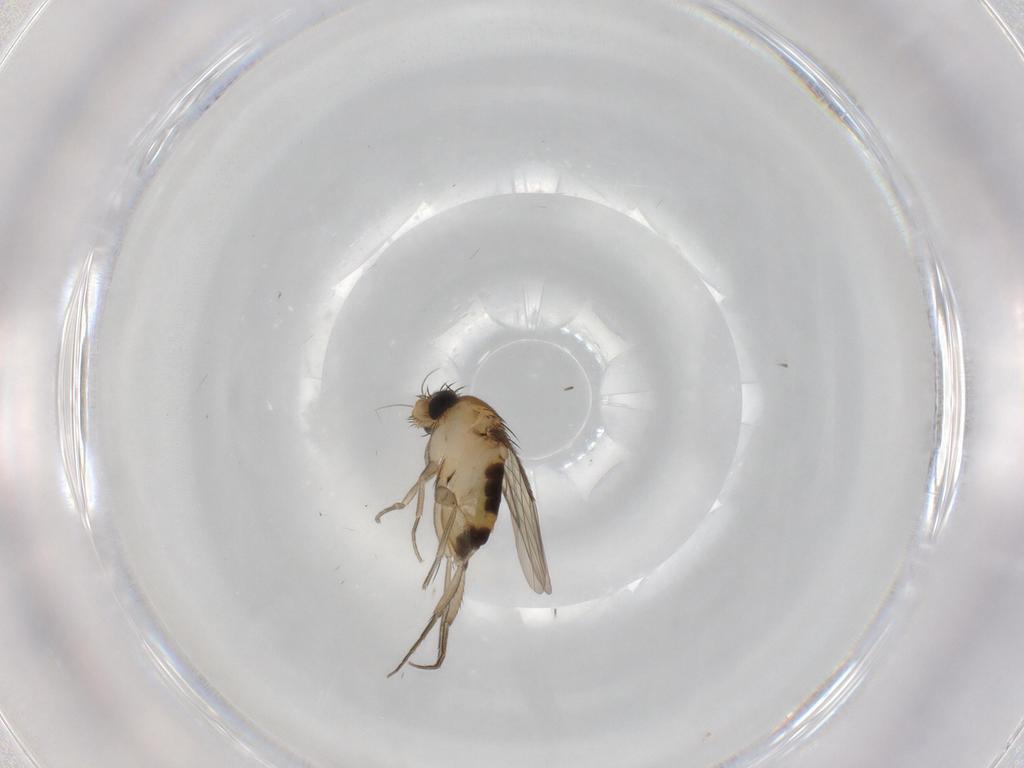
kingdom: Animalia
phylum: Arthropoda
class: Insecta
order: Diptera
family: Phoridae
